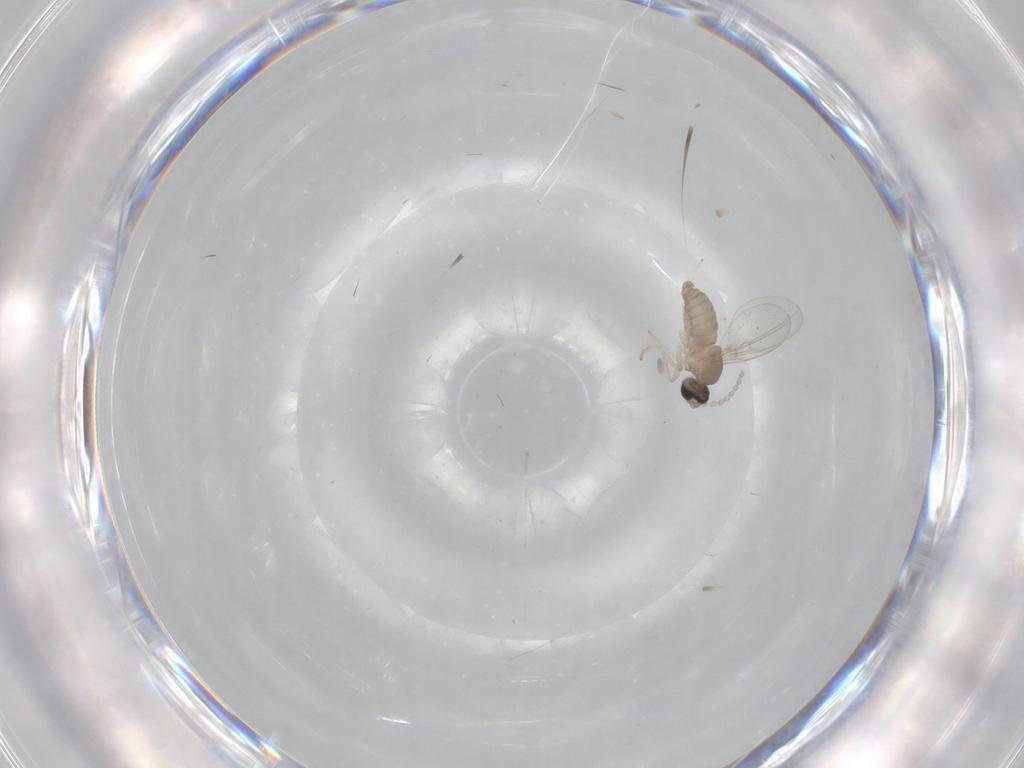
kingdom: Animalia
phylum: Arthropoda
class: Insecta
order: Diptera
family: Cecidomyiidae
